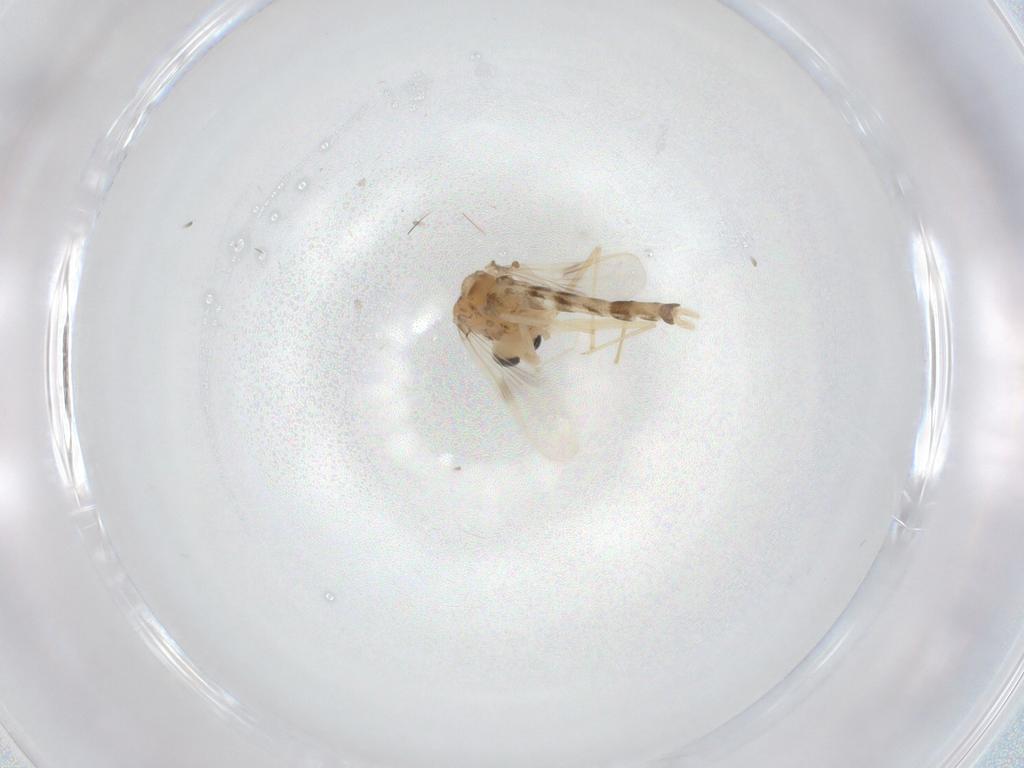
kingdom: Animalia
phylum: Arthropoda
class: Insecta
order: Diptera
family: Chironomidae
